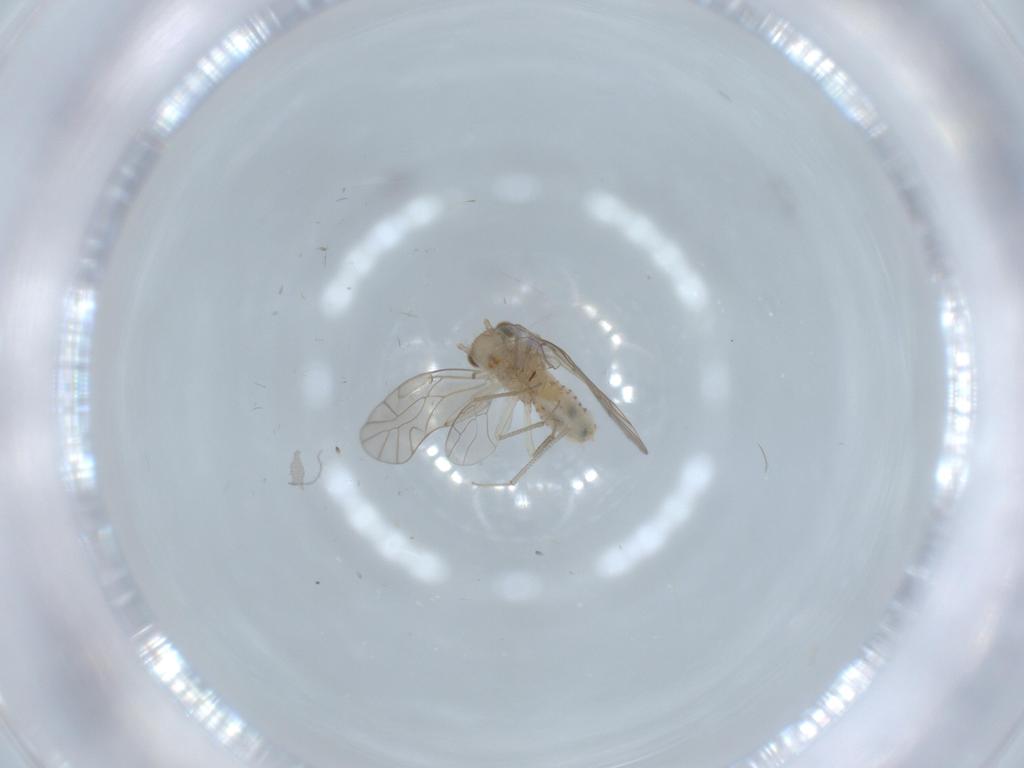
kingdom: Animalia
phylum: Arthropoda
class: Insecta
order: Psocodea
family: Lachesillidae
